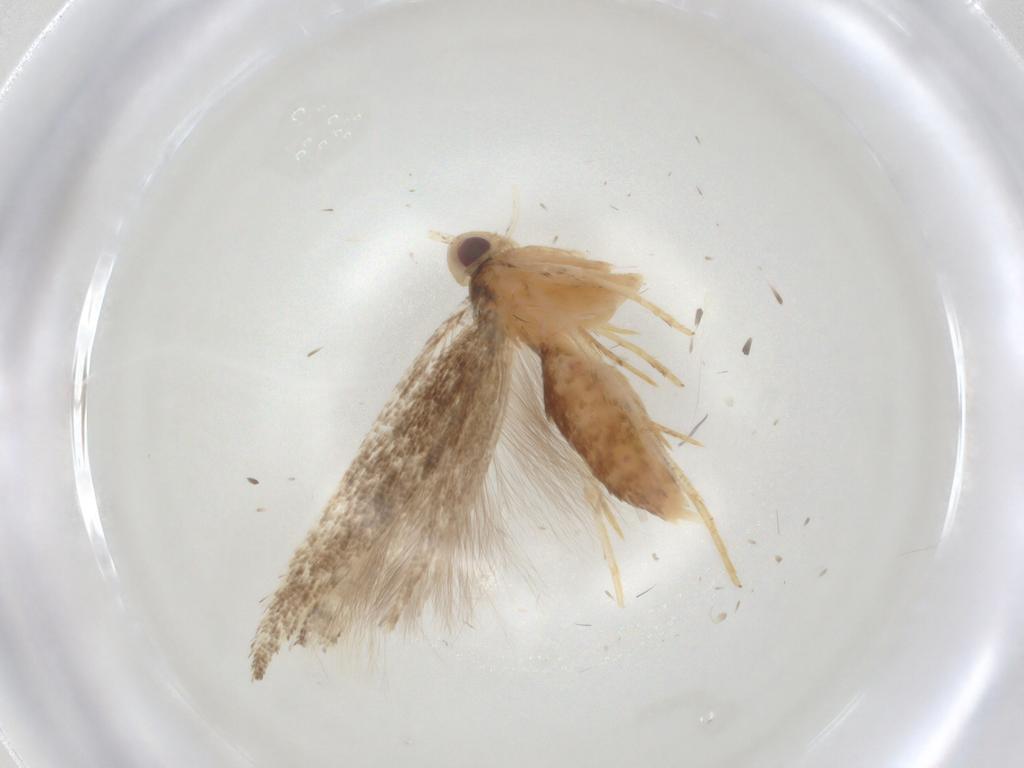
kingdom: Animalia
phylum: Arthropoda
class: Insecta
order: Lepidoptera
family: Cosmopterigidae
